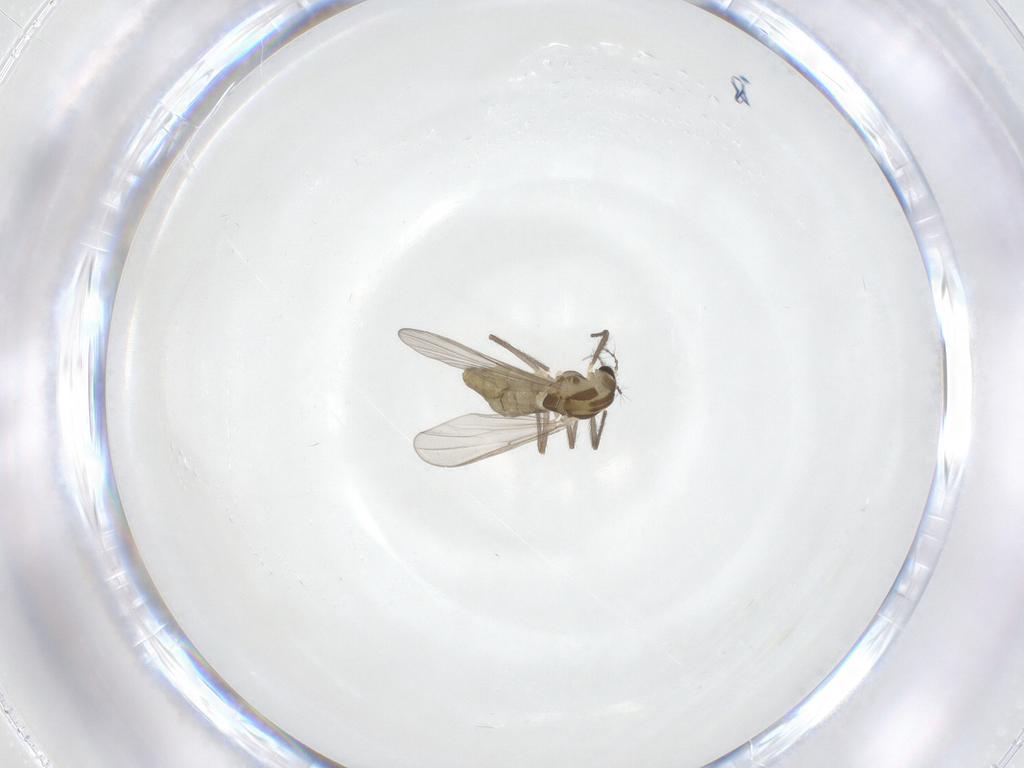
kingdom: Animalia
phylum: Arthropoda
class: Insecta
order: Diptera
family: Chironomidae
